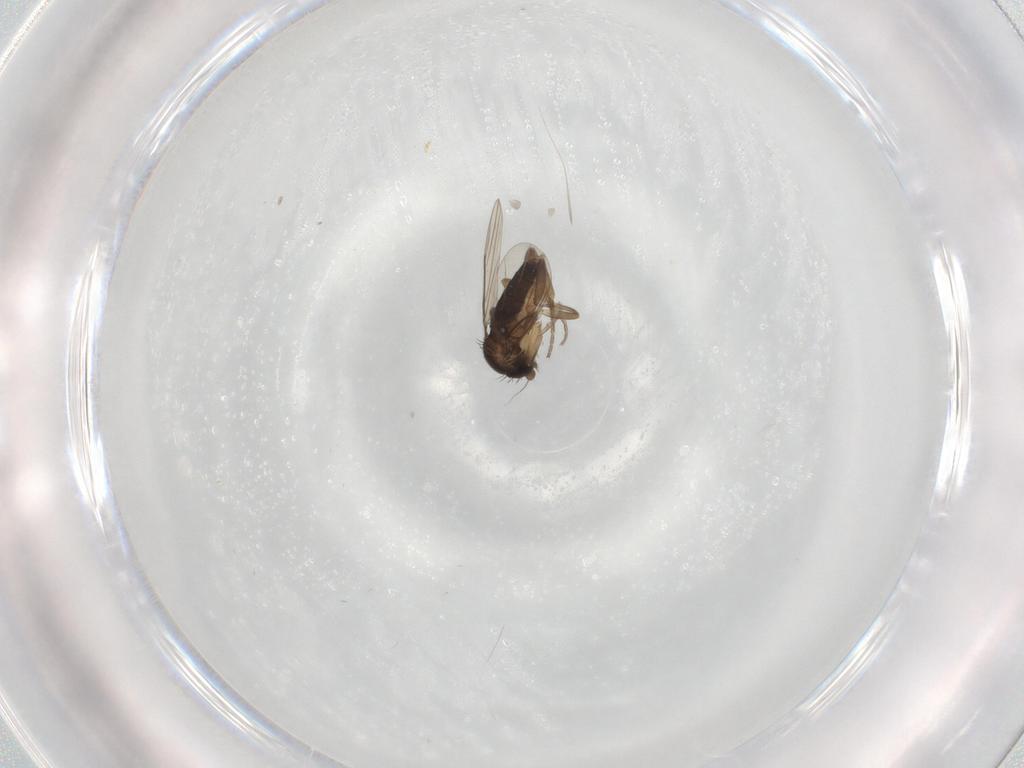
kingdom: Animalia
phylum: Arthropoda
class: Insecta
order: Diptera
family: Phoridae
